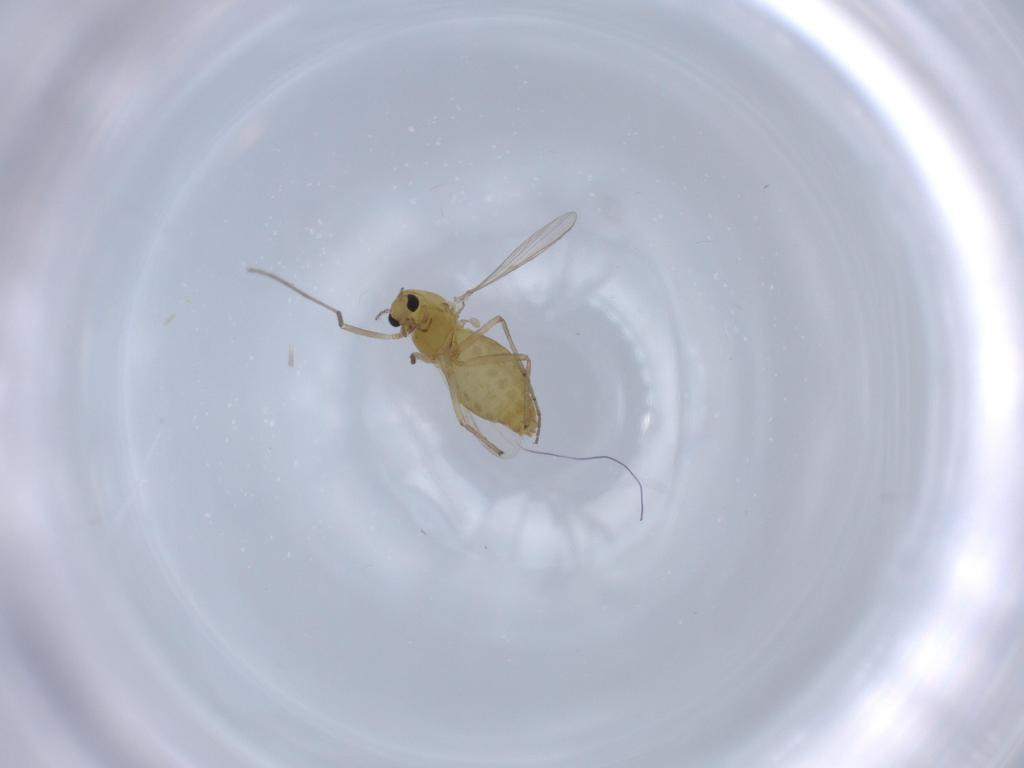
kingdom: Animalia
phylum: Arthropoda
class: Insecta
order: Diptera
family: Chironomidae
